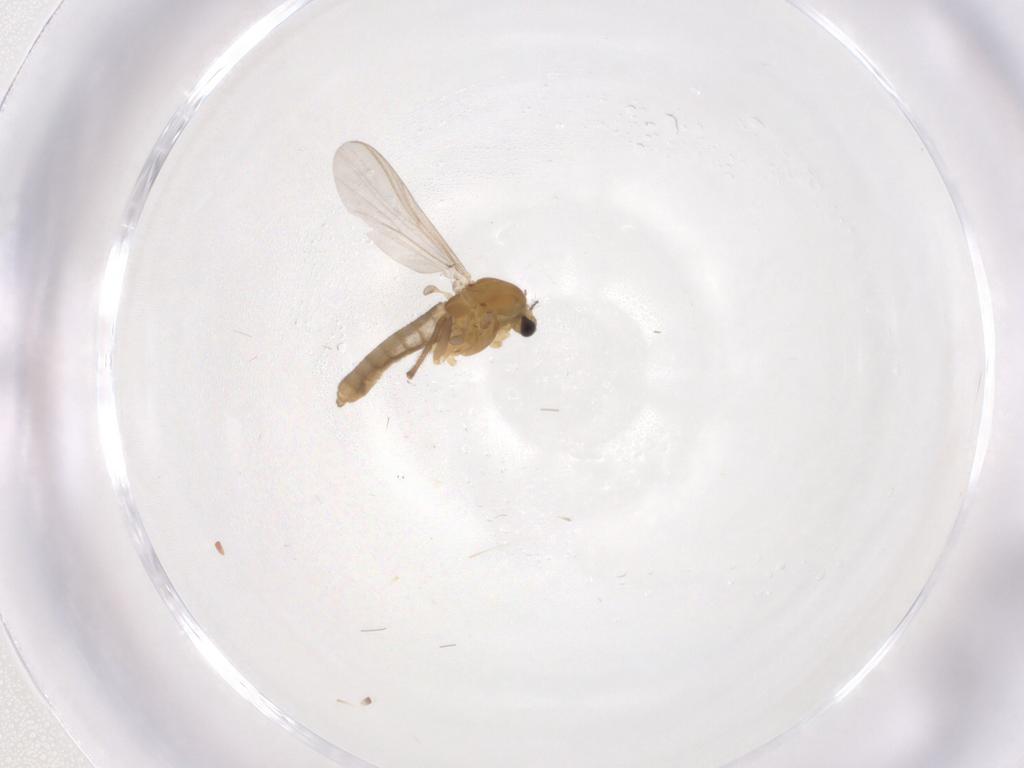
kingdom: Animalia
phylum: Arthropoda
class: Insecta
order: Diptera
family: Chironomidae
